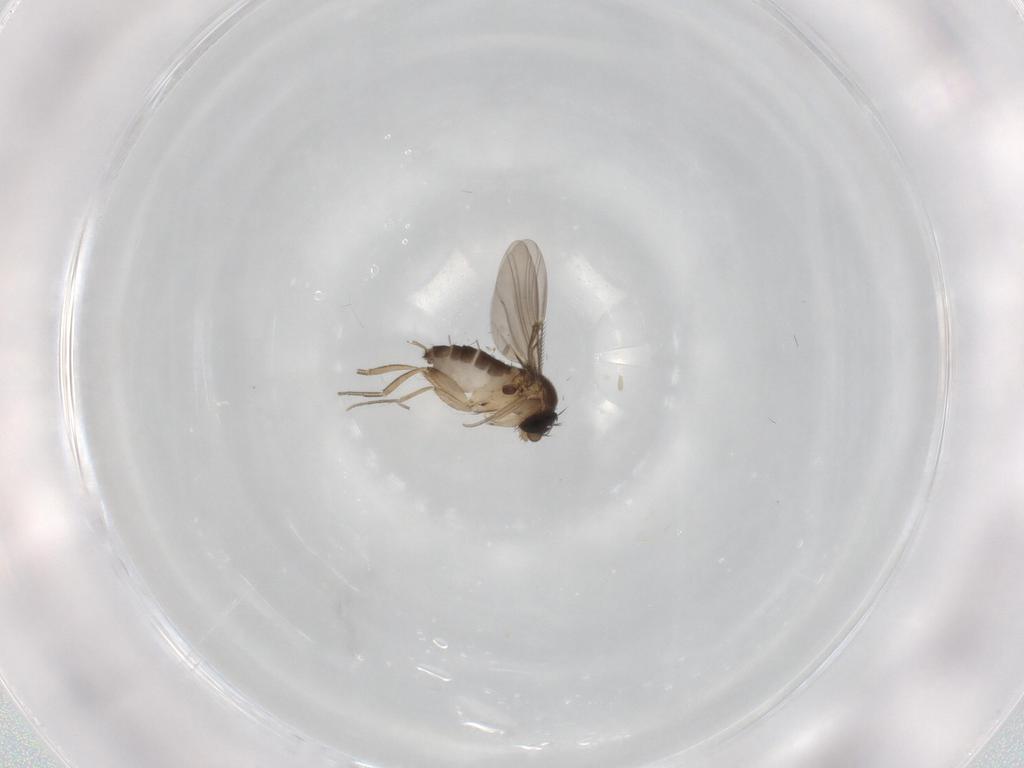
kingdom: Animalia
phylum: Arthropoda
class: Insecta
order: Diptera
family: Phoridae
